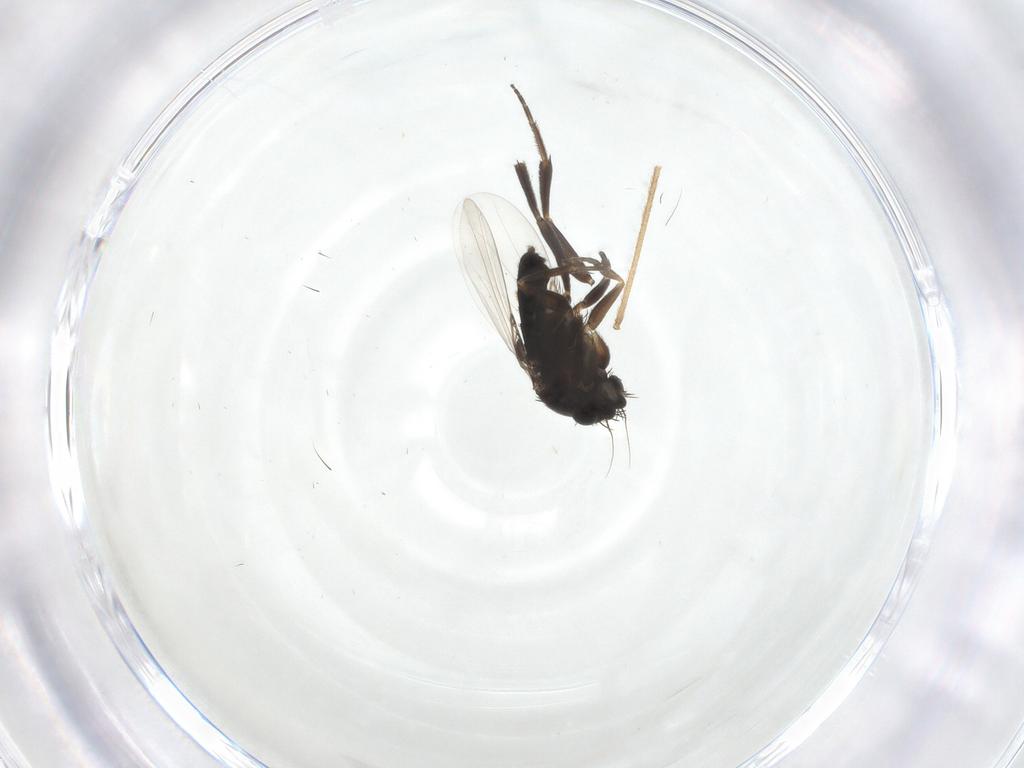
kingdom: Animalia
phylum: Arthropoda
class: Insecta
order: Diptera
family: Phoridae
